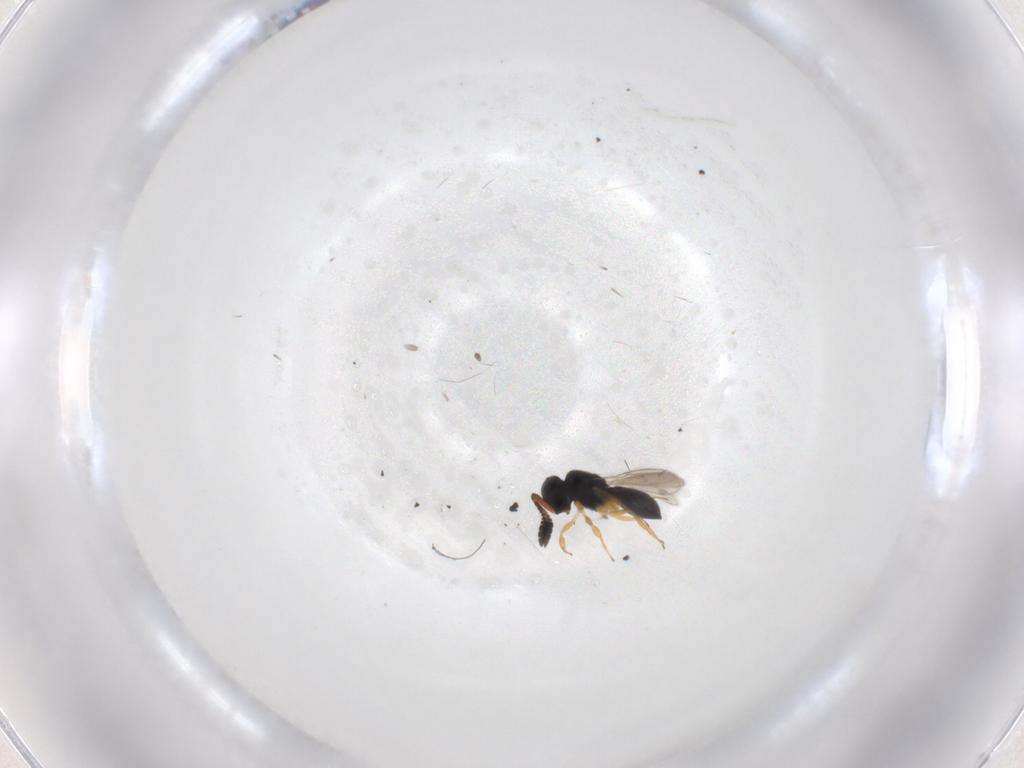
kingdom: Animalia
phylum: Arthropoda
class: Insecta
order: Hymenoptera
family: Scelionidae
